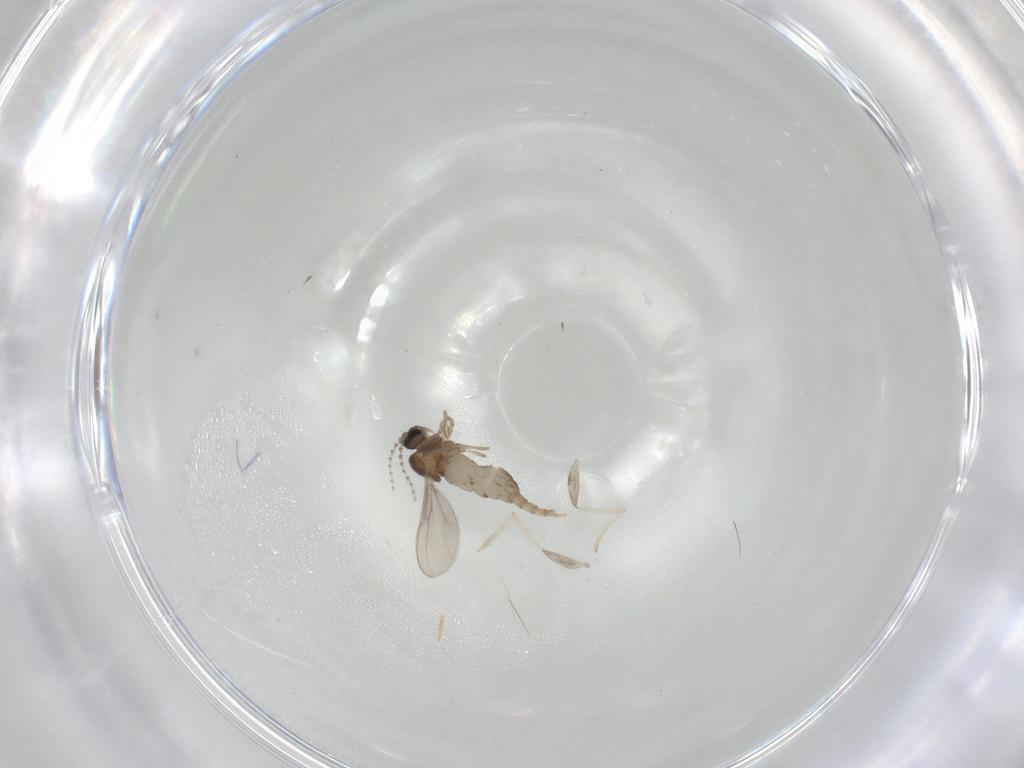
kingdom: Animalia
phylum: Arthropoda
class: Insecta
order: Diptera
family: Cecidomyiidae
